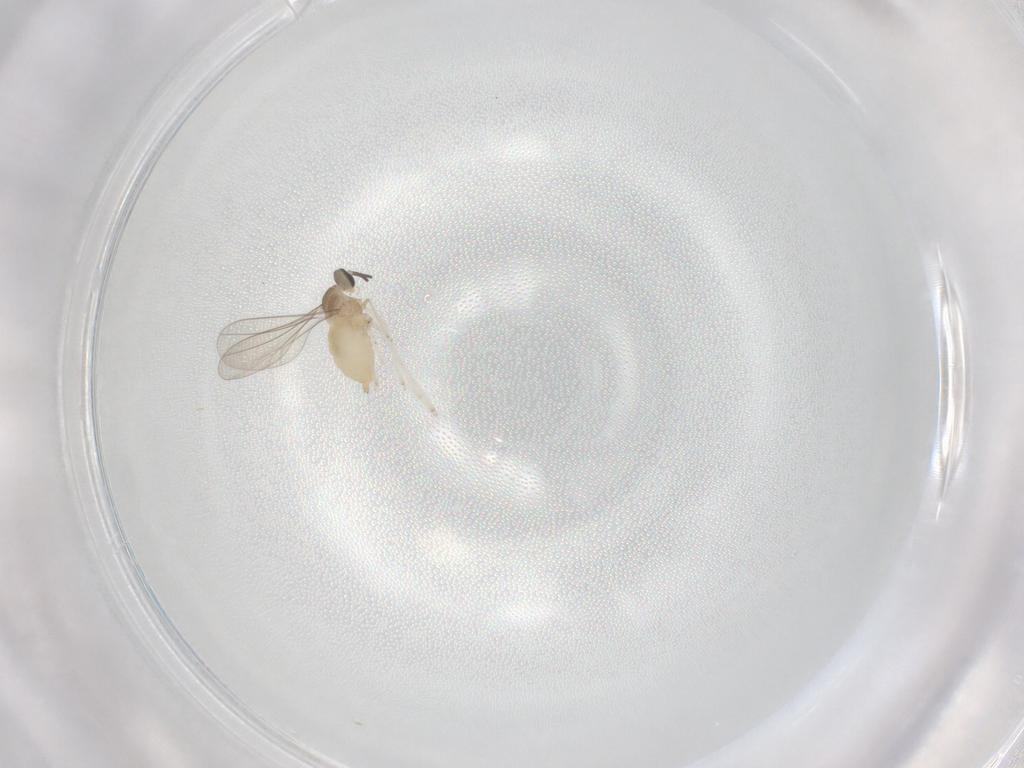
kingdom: Animalia
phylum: Arthropoda
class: Insecta
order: Diptera
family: Cecidomyiidae
